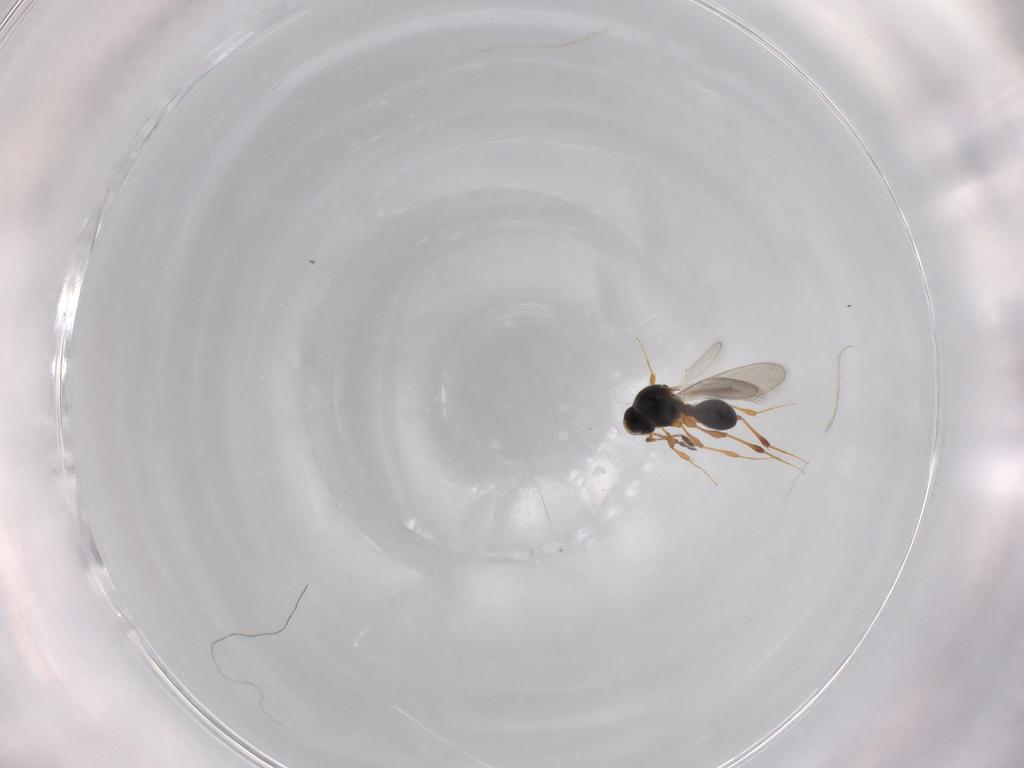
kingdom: Animalia
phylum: Arthropoda
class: Insecta
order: Hymenoptera
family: Platygastridae
